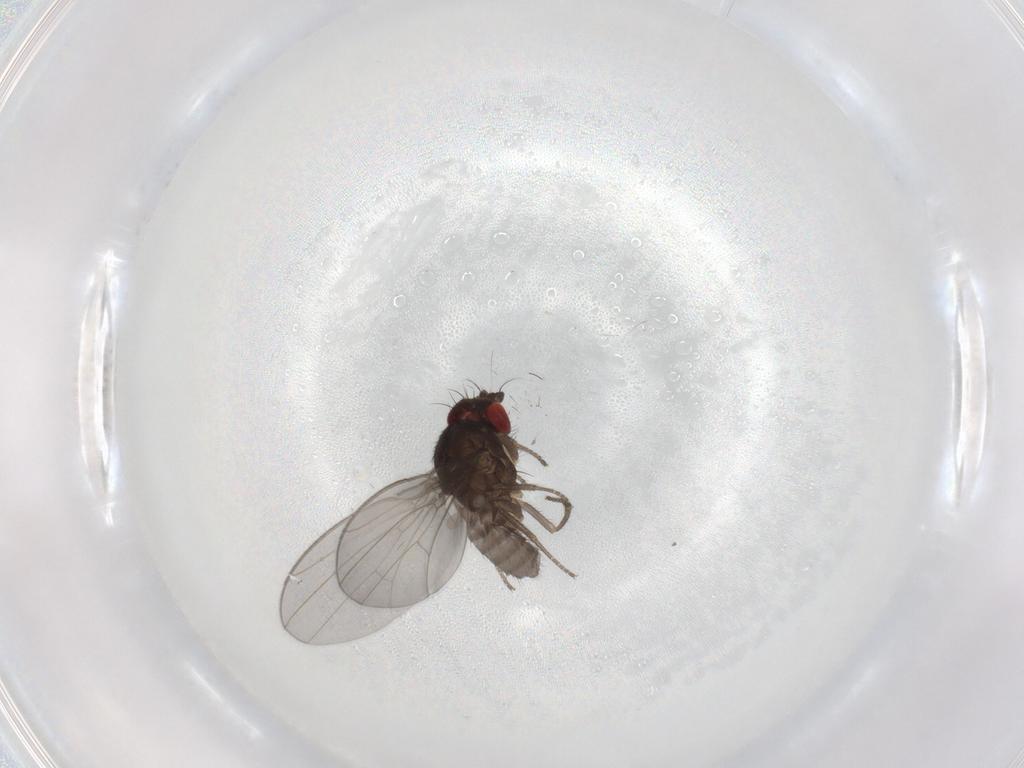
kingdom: Animalia
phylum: Arthropoda
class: Insecta
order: Diptera
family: Drosophilidae
